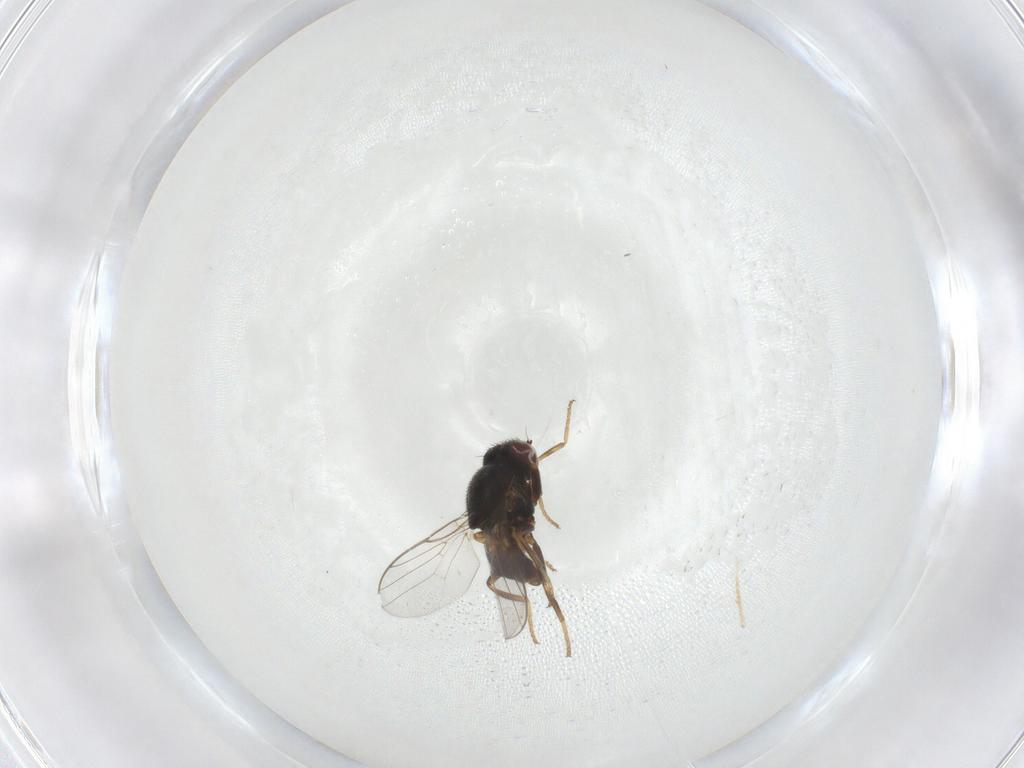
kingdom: Animalia
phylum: Arthropoda
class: Insecta
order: Diptera
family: Chloropidae
